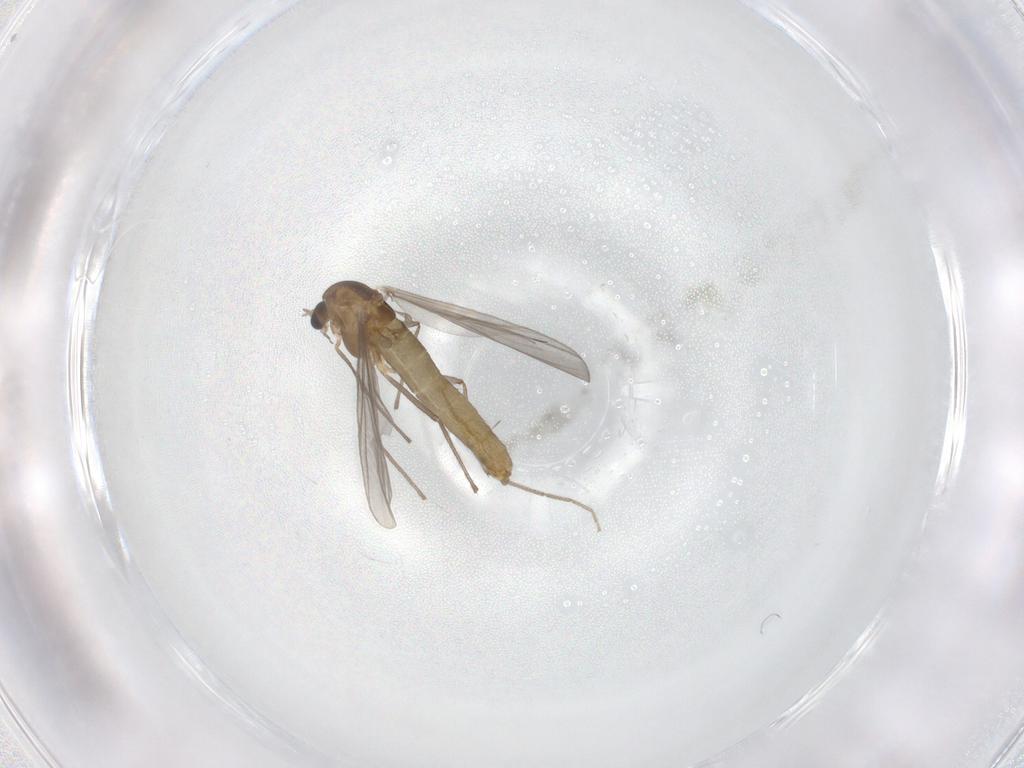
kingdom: Animalia
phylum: Arthropoda
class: Insecta
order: Diptera
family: Chironomidae
